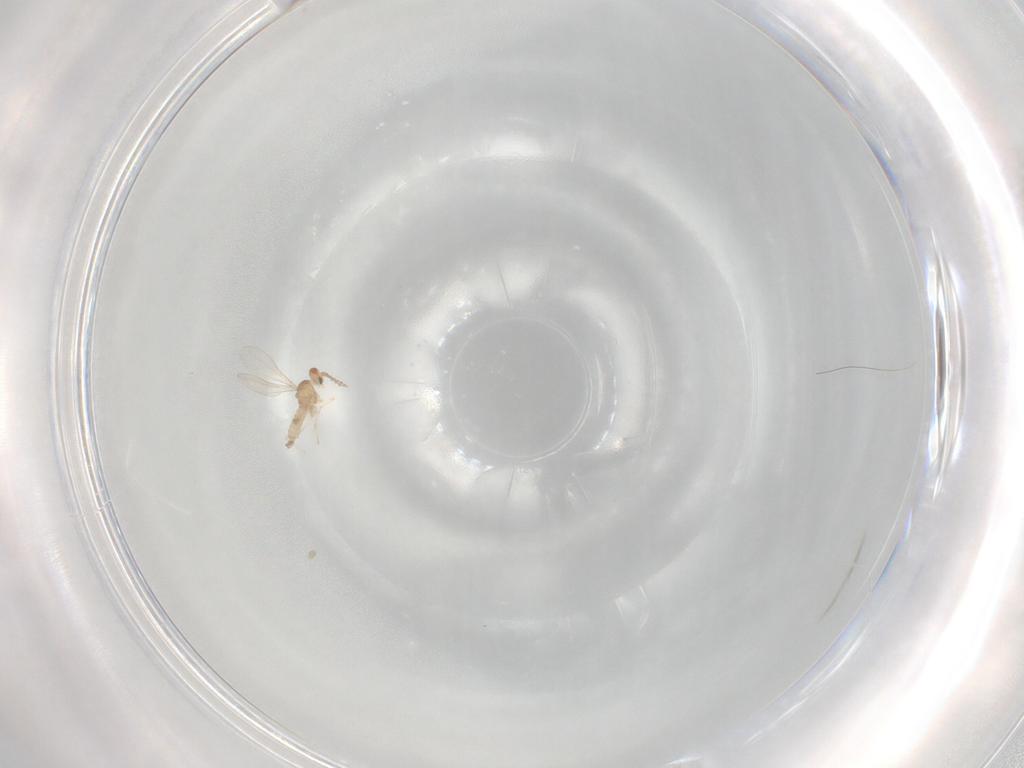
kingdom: Animalia
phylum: Arthropoda
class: Insecta
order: Diptera
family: Cecidomyiidae
